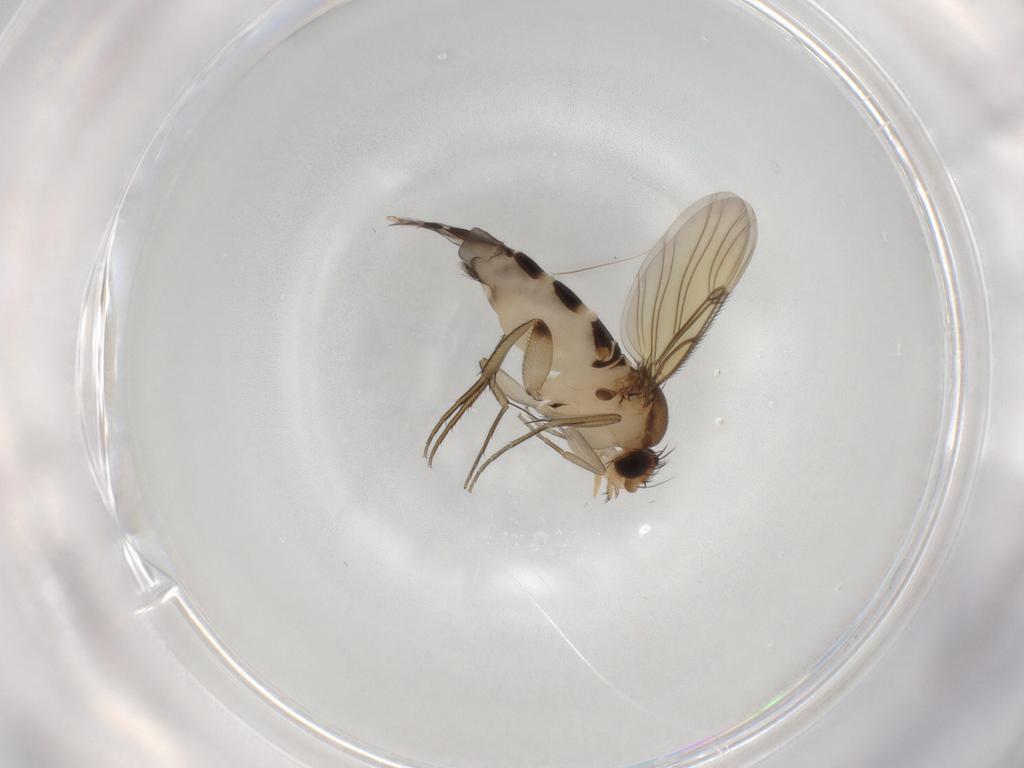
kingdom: Animalia
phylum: Arthropoda
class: Insecta
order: Diptera
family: Phoridae
